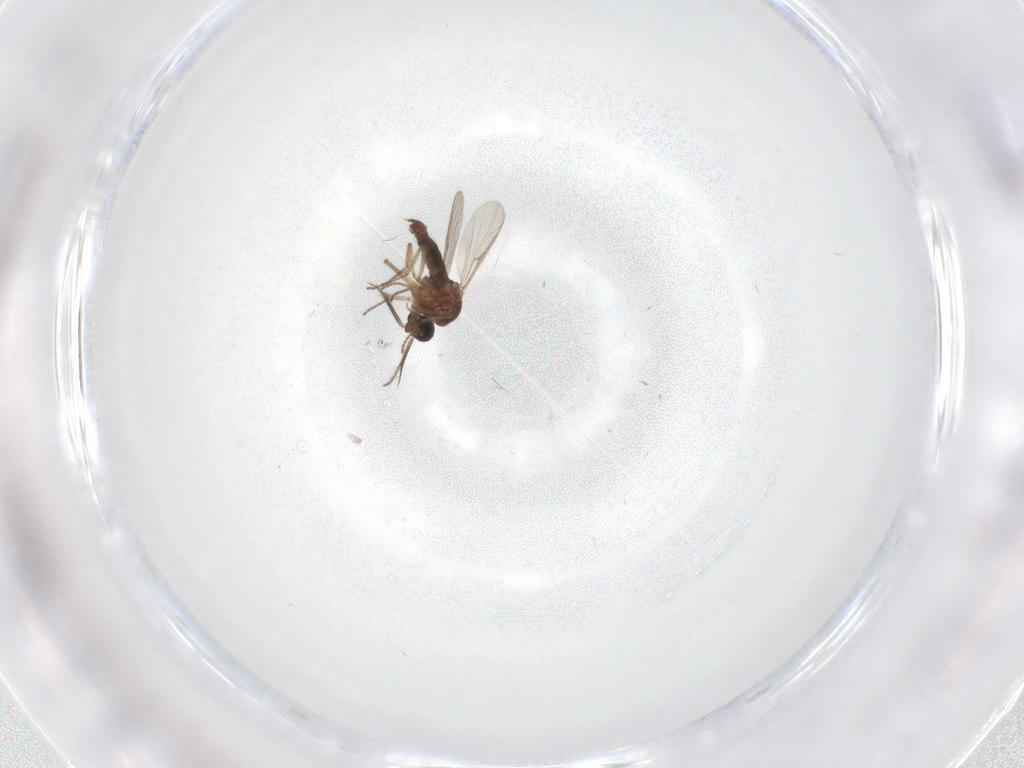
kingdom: Animalia
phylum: Arthropoda
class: Insecta
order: Diptera
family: Ceratopogonidae
